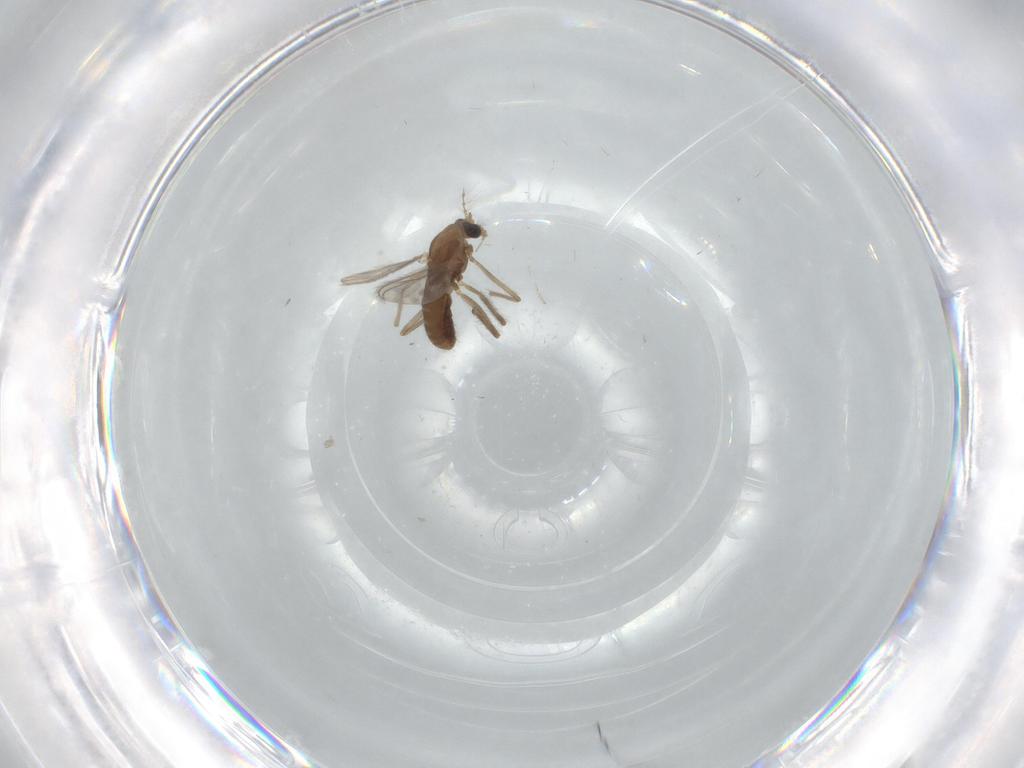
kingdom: Animalia
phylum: Arthropoda
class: Insecta
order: Diptera
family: Chironomidae
